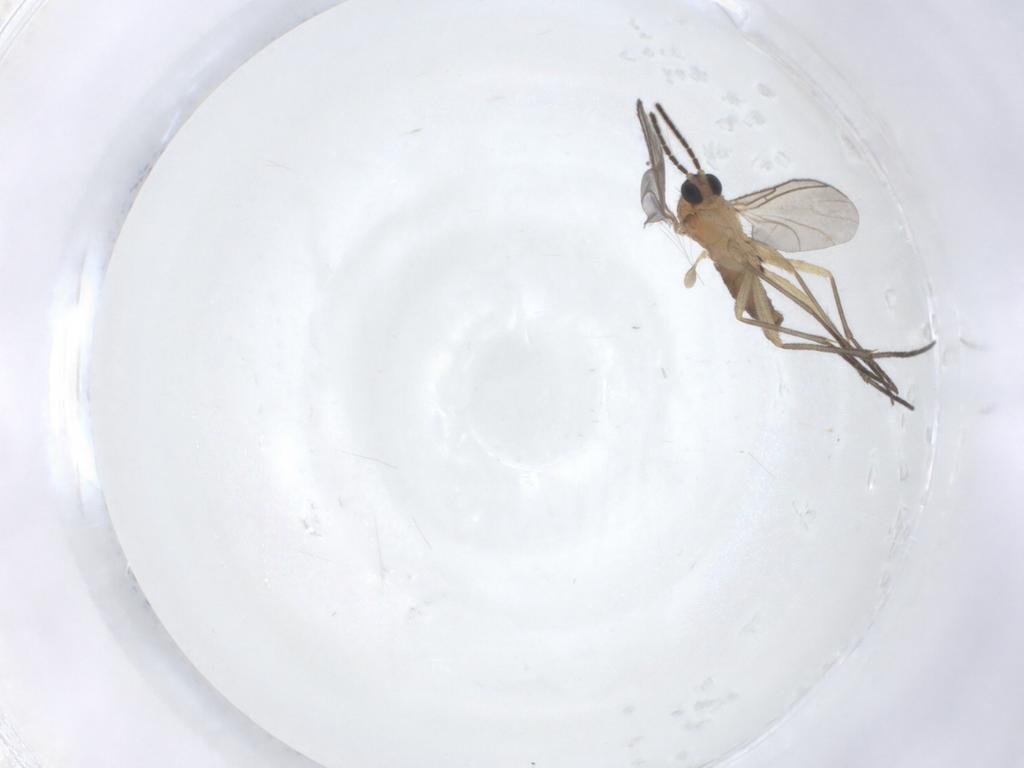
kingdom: Animalia
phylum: Arthropoda
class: Insecta
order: Diptera
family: Sciaridae
